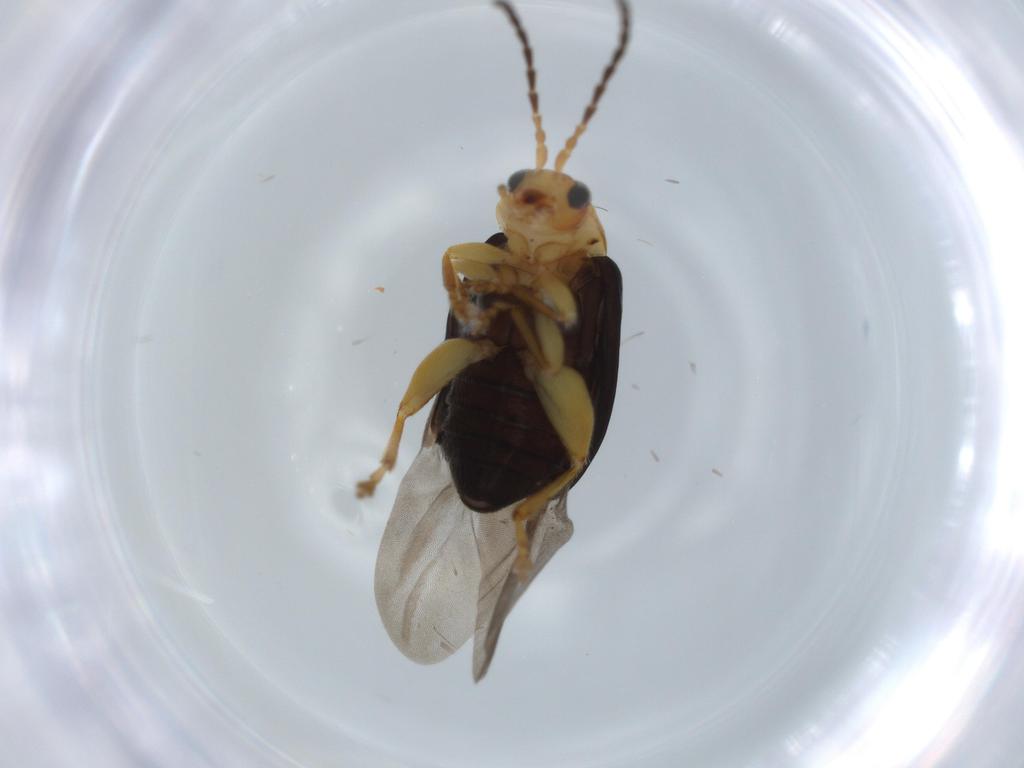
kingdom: Animalia
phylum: Arthropoda
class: Insecta
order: Coleoptera
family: Chrysomelidae
